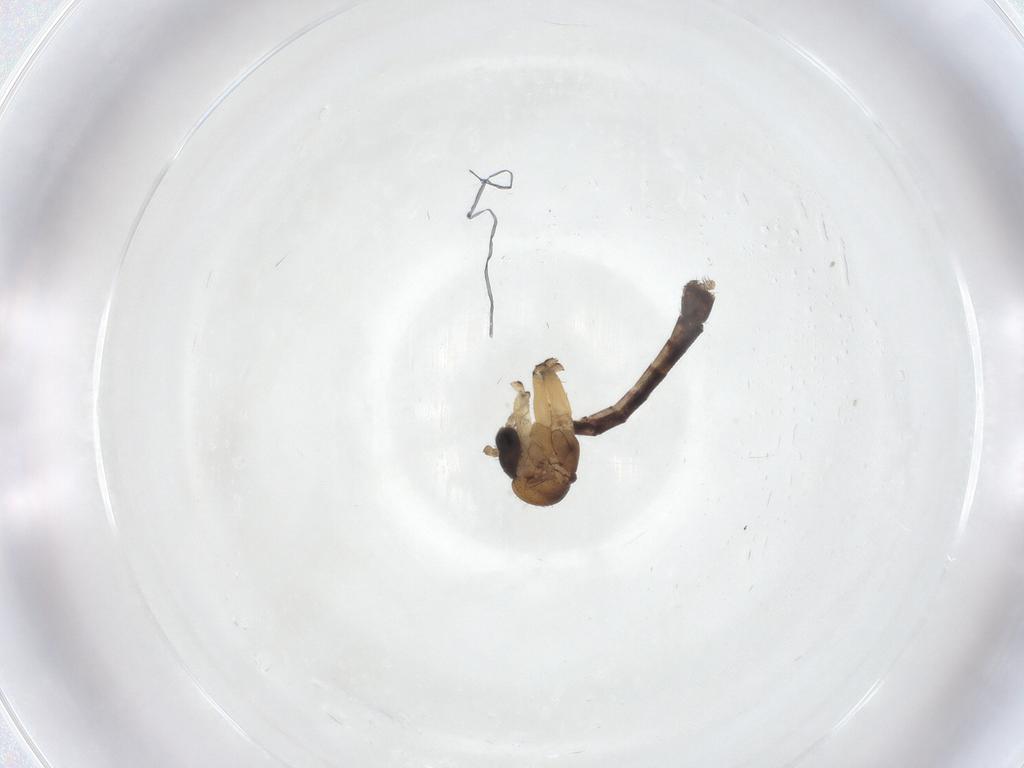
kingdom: Animalia
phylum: Arthropoda
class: Insecta
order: Diptera
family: Mycetophilidae
